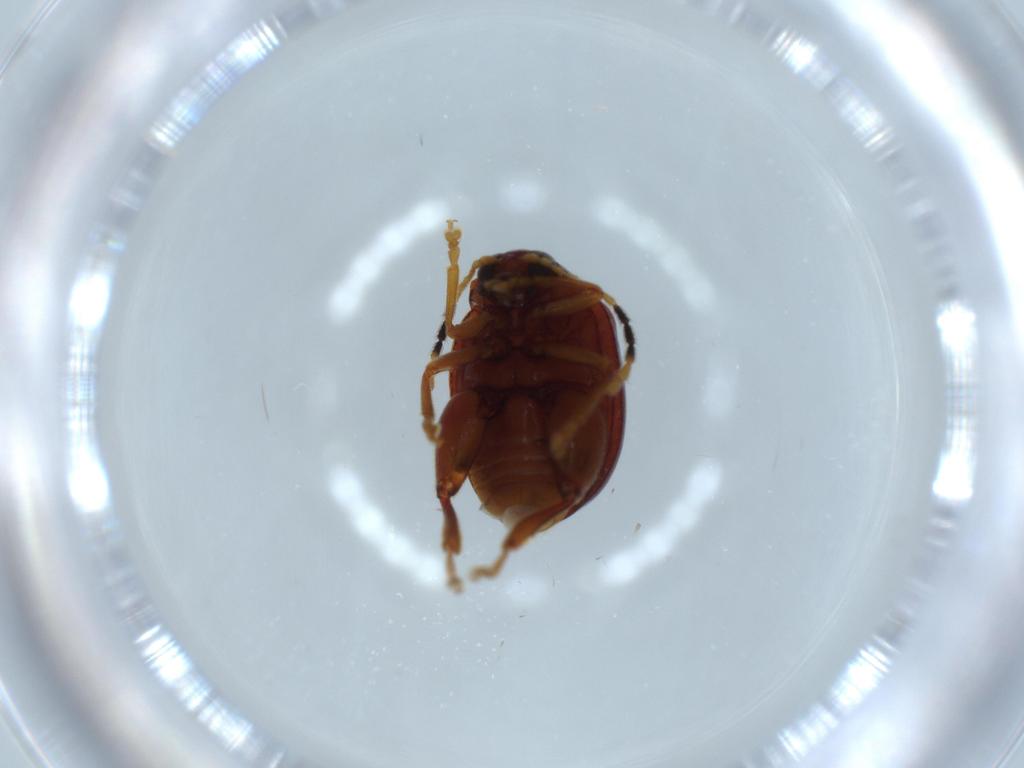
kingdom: Animalia
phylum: Arthropoda
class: Insecta
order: Coleoptera
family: Chrysomelidae
